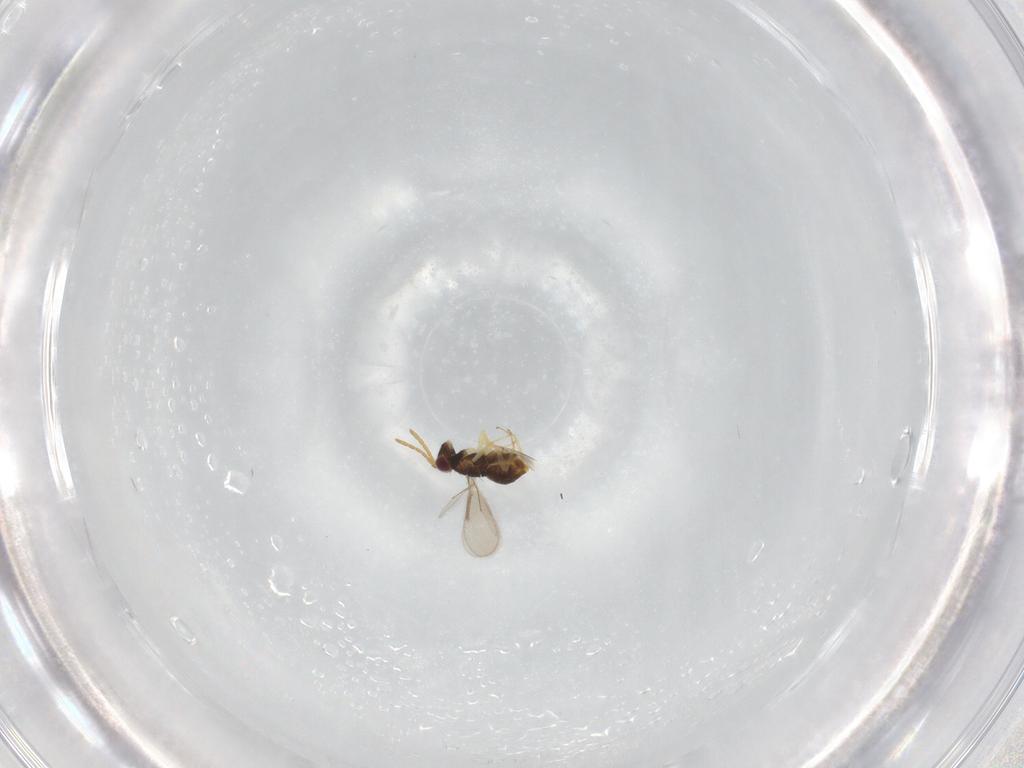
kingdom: Animalia
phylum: Arthropoda
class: Insecta
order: Hymenoptera
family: Aphelinidae
